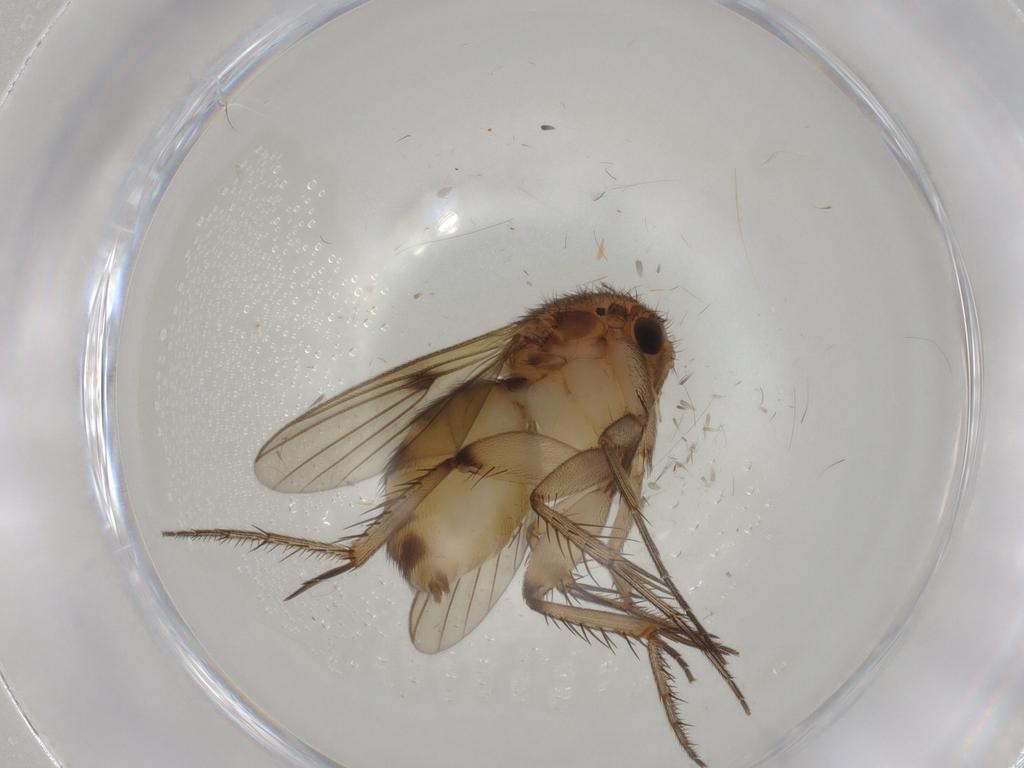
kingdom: Animalia
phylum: Arthropoda
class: Insecta
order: Diptera
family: Mycetophilidae
